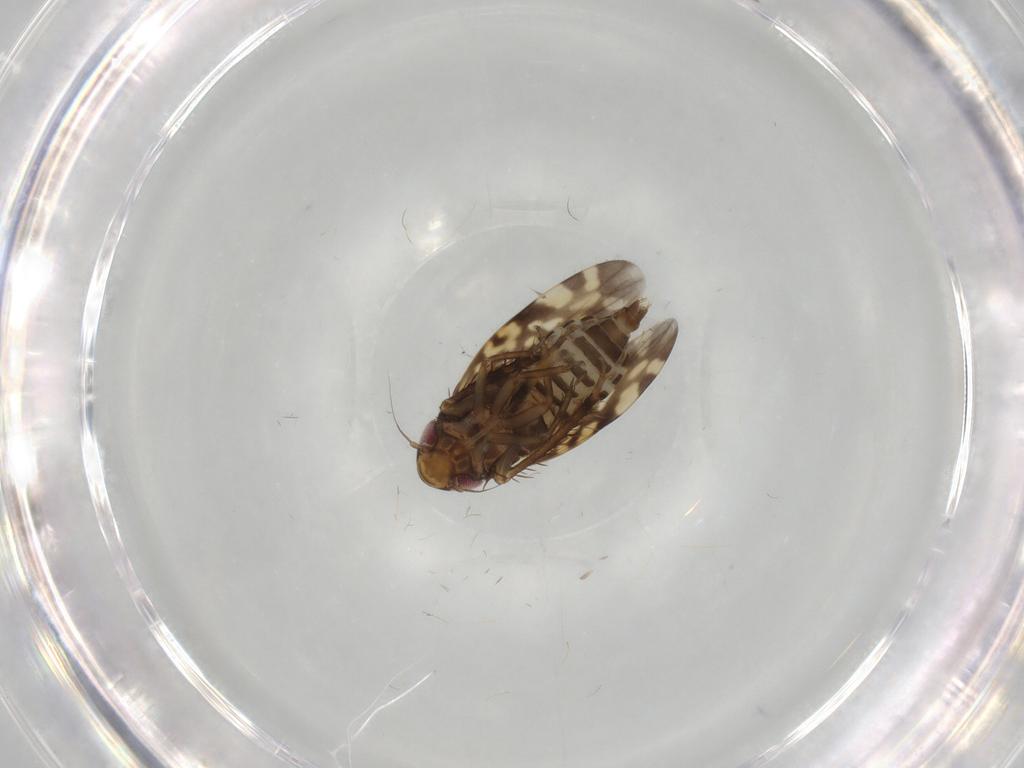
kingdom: Animalia
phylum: Arthropoda
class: Insecta
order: Hemiptera
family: Cicadellidae
